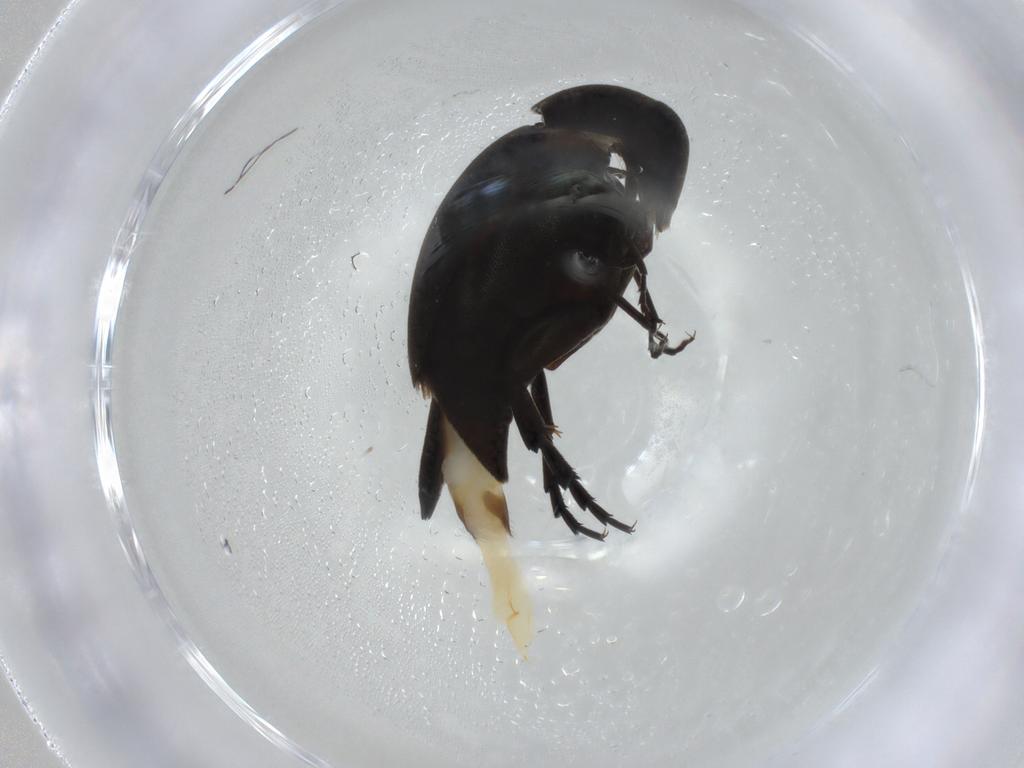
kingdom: Animalia
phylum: Arthropoda
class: Insecta
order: Coleoptera
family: Mordellidae
